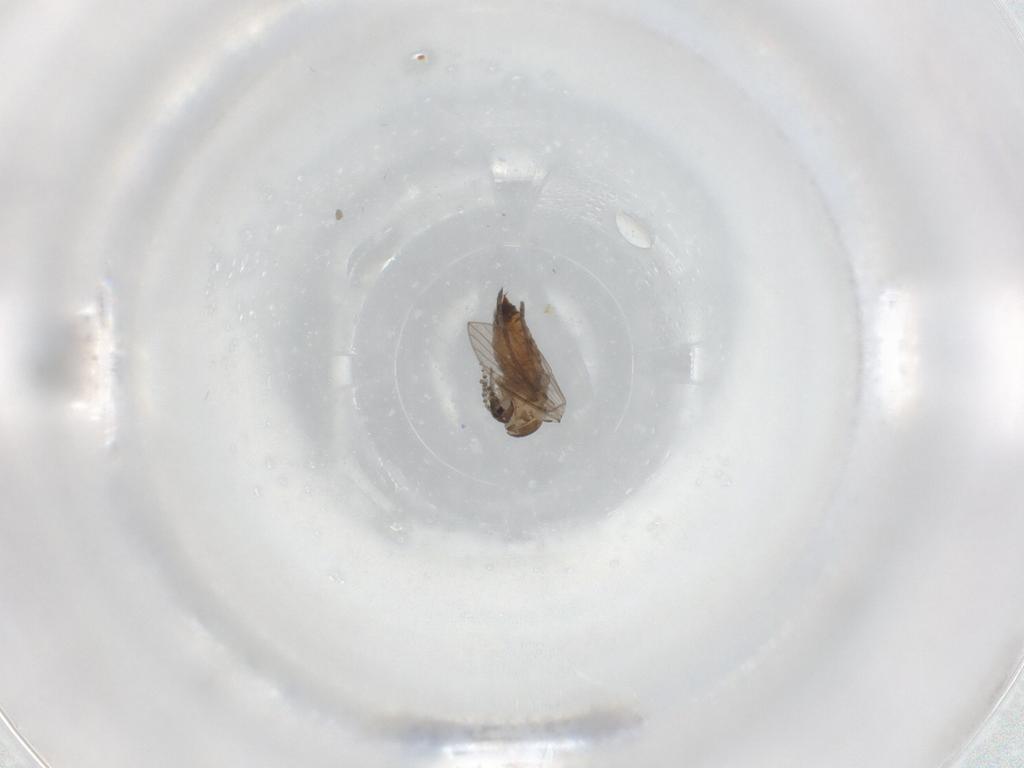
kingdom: Animalia
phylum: Arthropoda
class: Insecta
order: Diptera
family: Psychodidae
